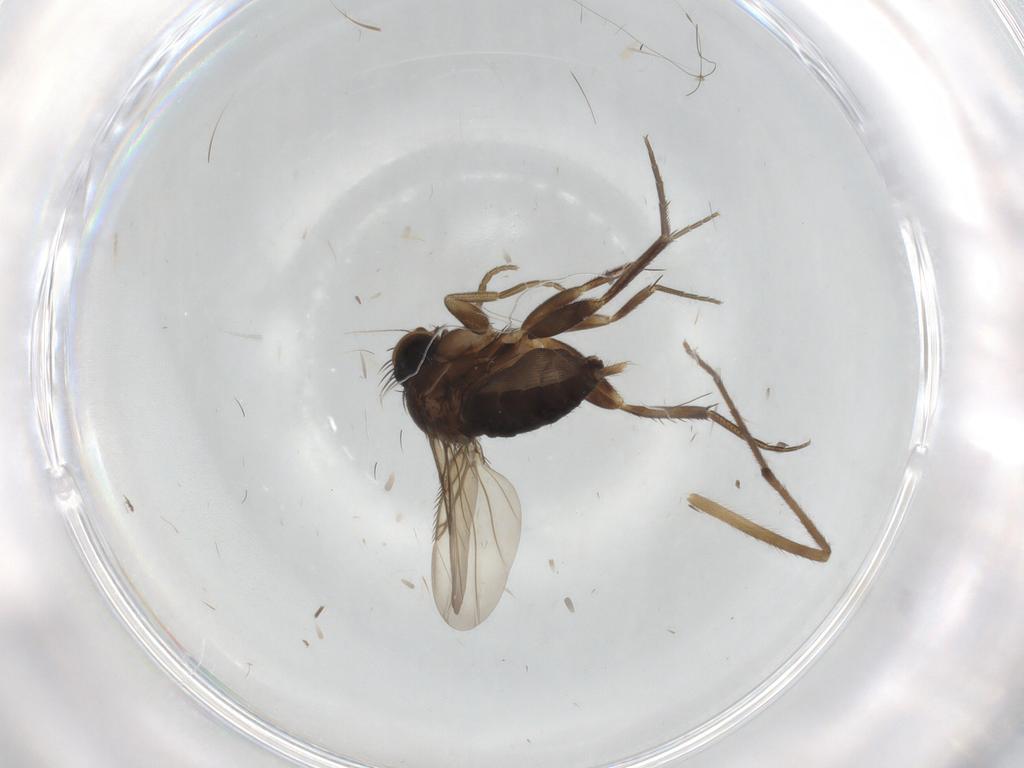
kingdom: Animalia
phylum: Arthropoda
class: Insecta
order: Diptera
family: Phoridae
